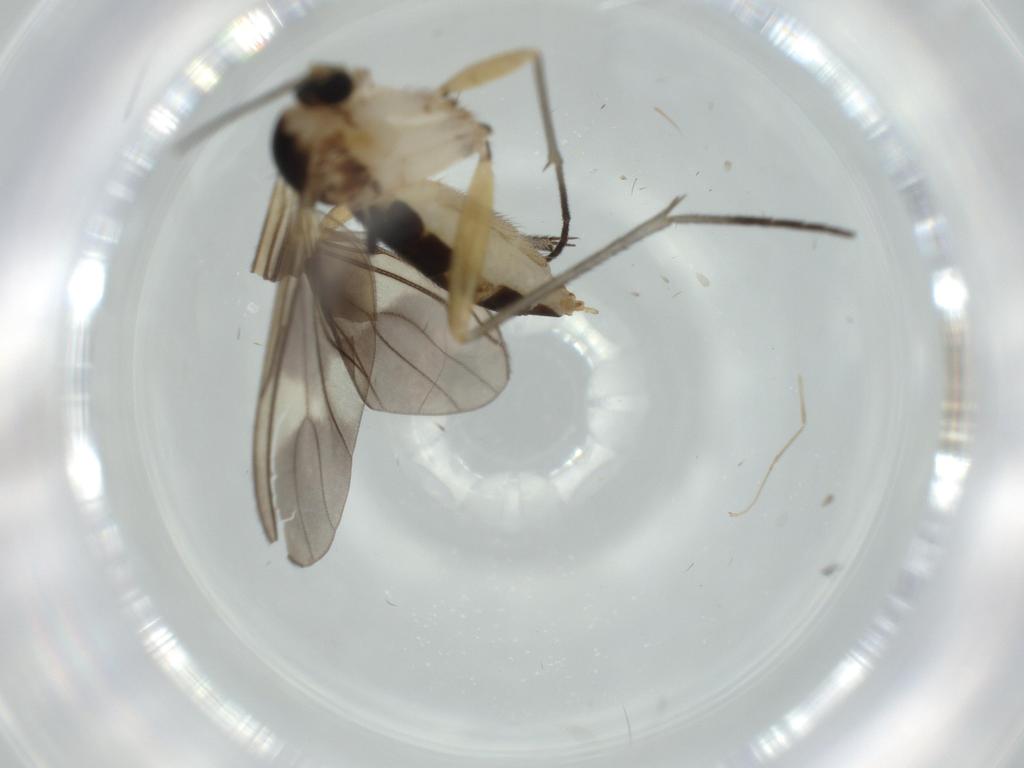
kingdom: Animalia
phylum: Arthropoda
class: Insecta
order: Diptera
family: Sciaridae
